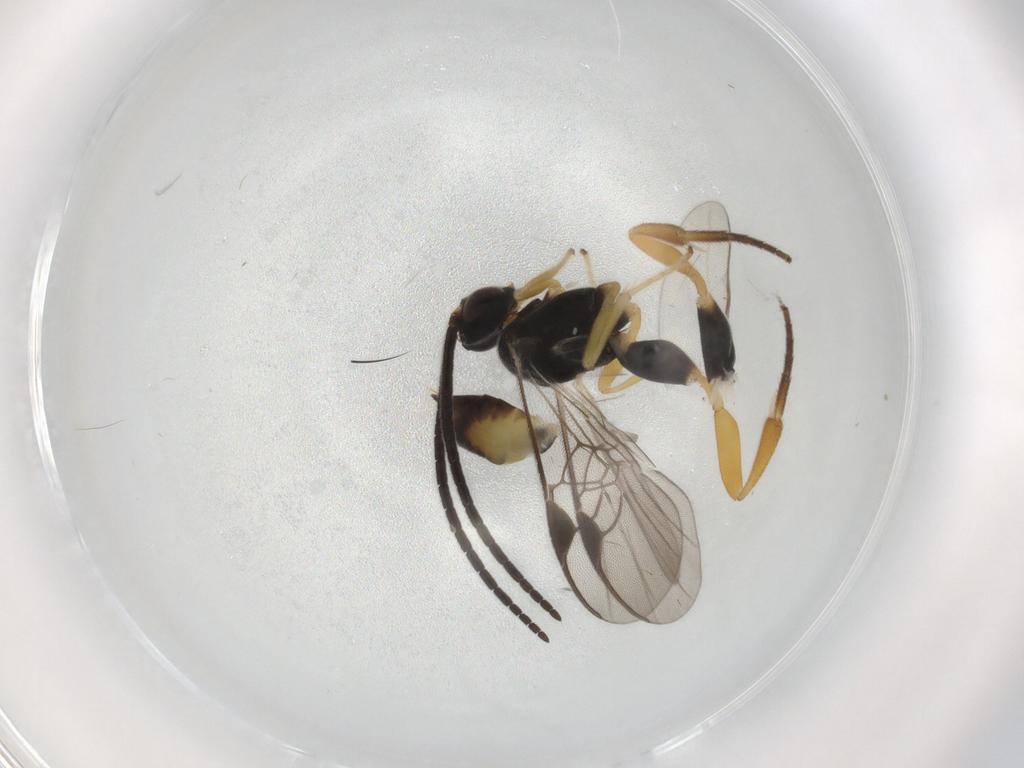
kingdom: Animalia
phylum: Arthropoda
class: Insecta
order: Hymenoptera
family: Braconidae
